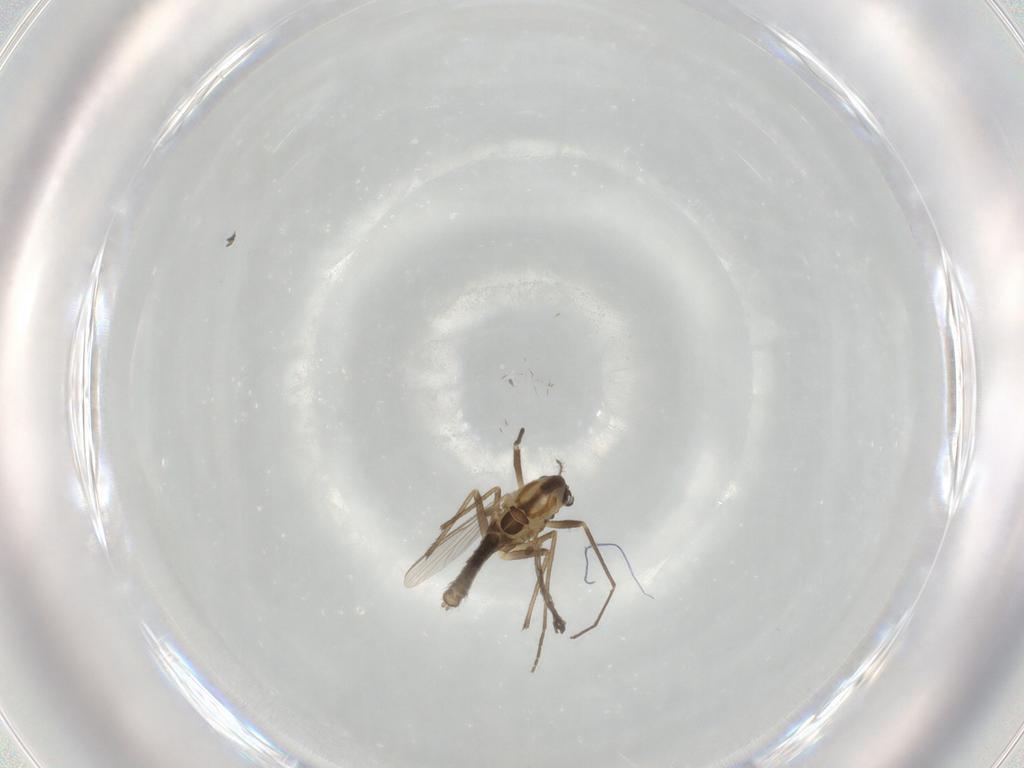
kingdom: Animalia
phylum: Arthropoda
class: Insecta
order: Diptera
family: Chironomidae
